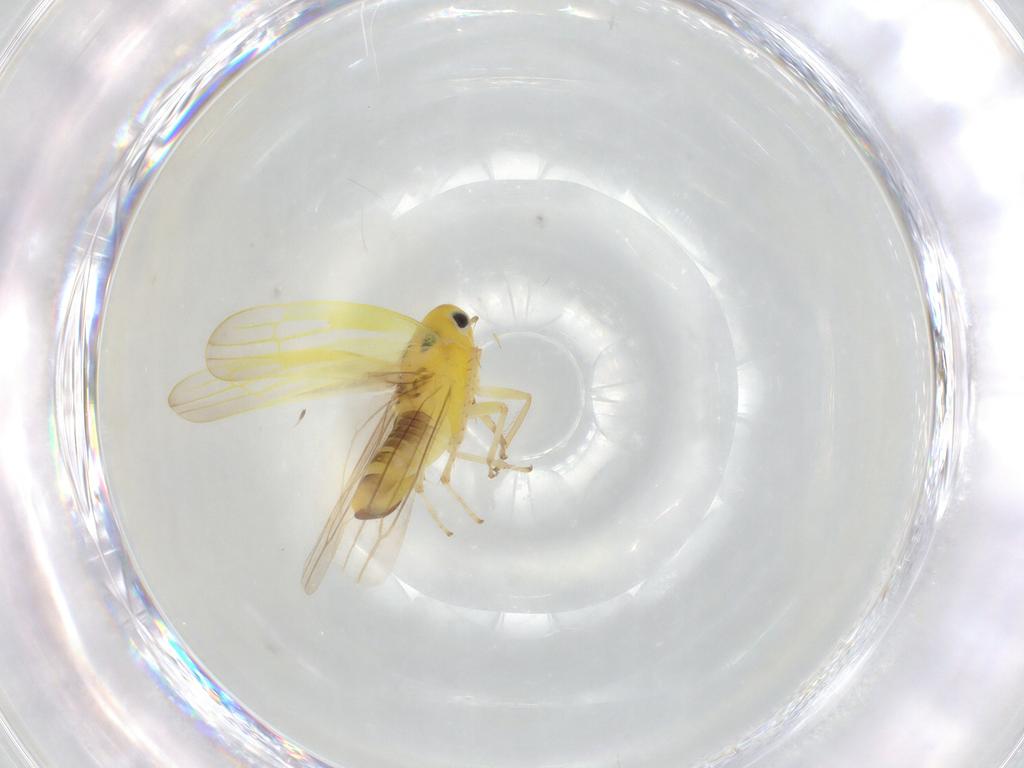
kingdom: Animalia
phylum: Arthropoda
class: Insecta
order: Hemiptera
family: Cicadellidae
